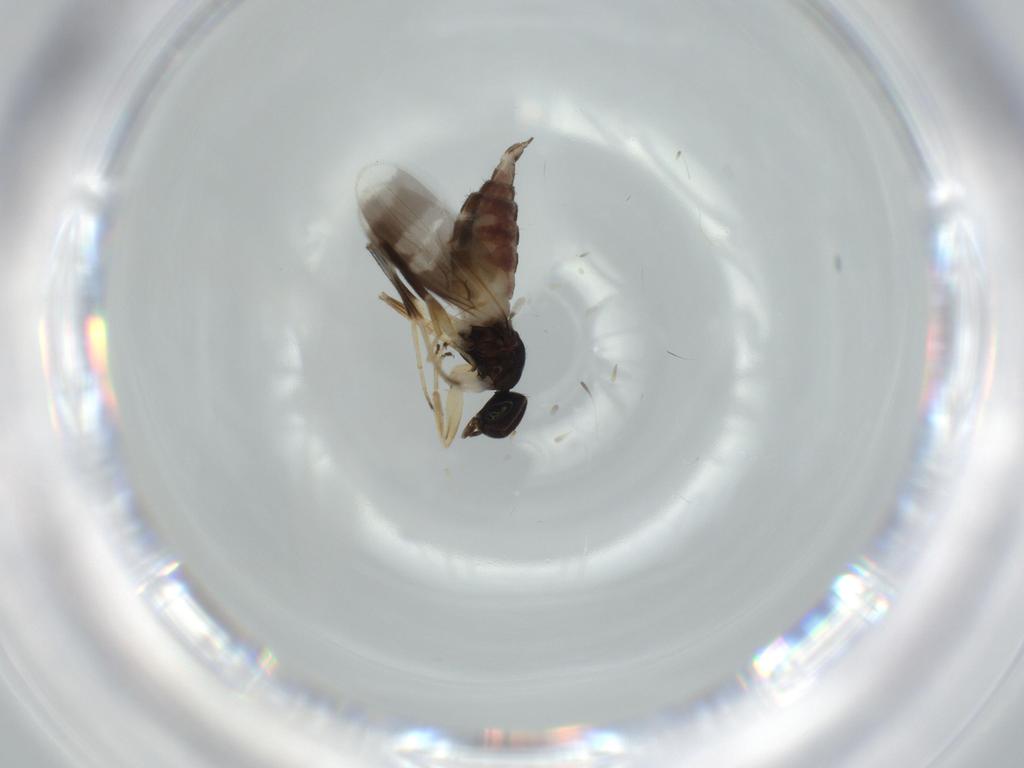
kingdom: Animalia
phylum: Arthropoda
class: Insecta
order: Diptera
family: Hybotidae
